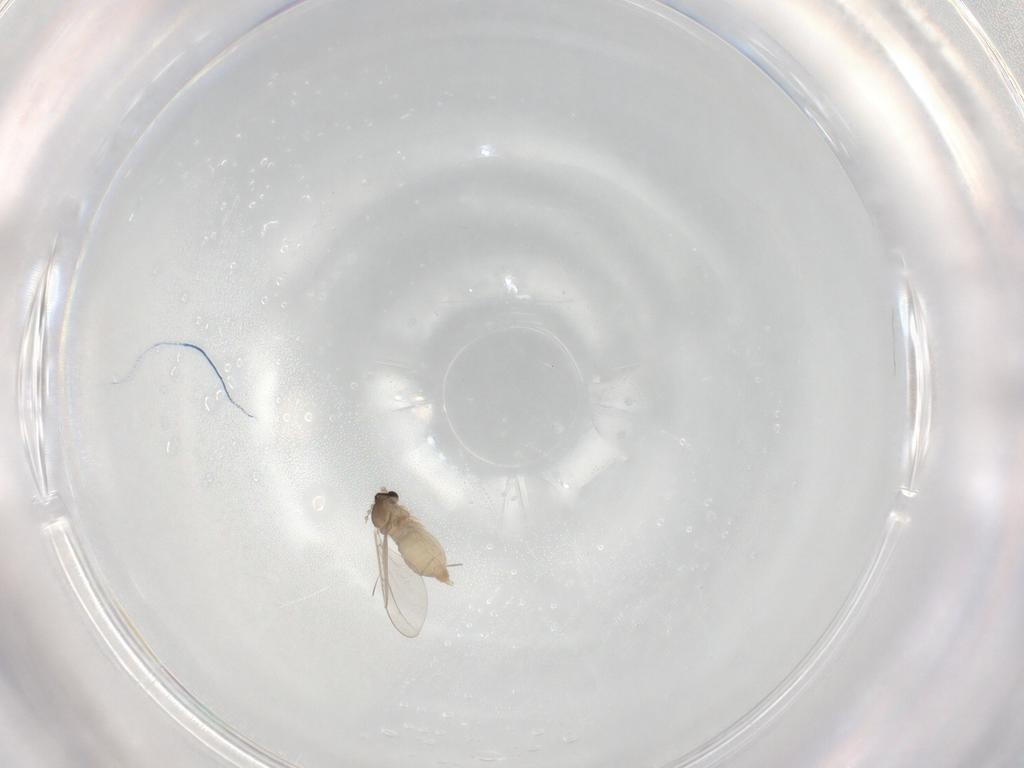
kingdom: Animalia
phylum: Arthropoda
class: Insecta
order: Diptera
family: Cecidomyiidae
